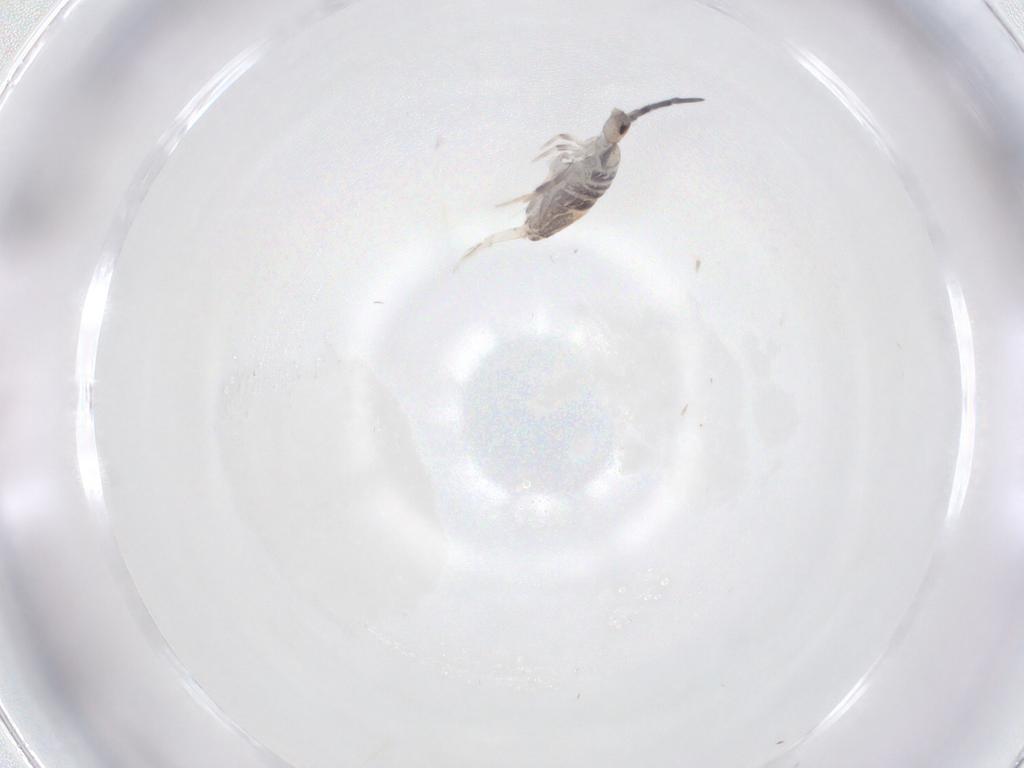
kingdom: Animalia
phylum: Arthropoda
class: Collembola
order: Poduromorpha
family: Hypogastruridae
